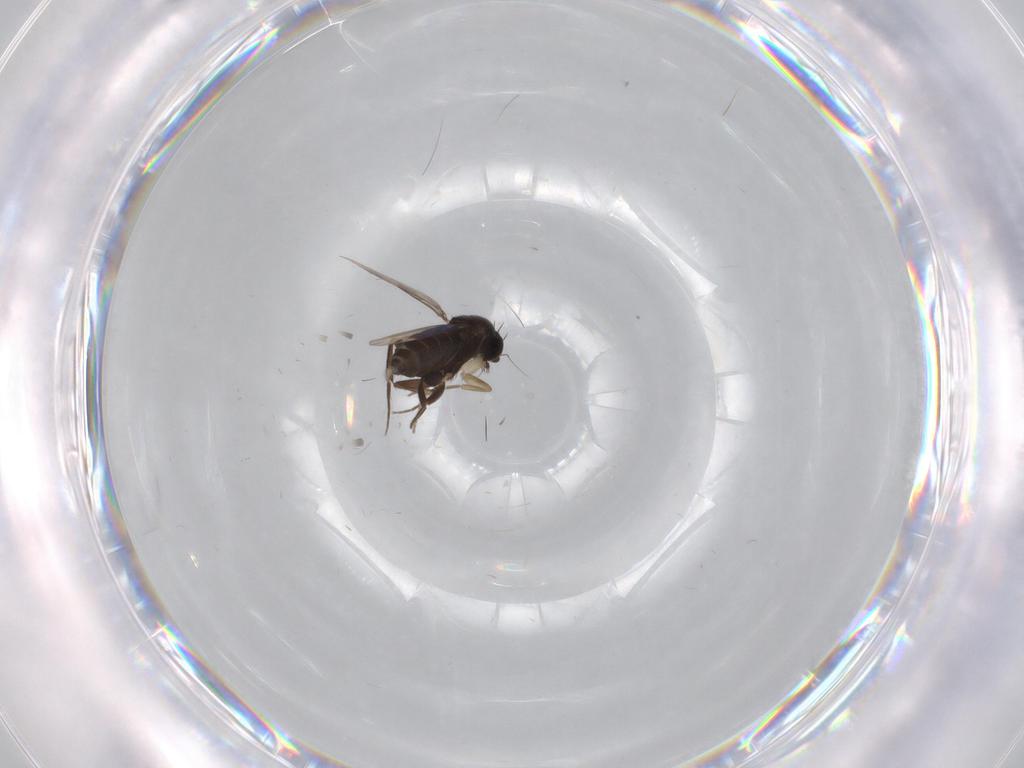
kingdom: Animalia
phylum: Arthropoda
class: Insecta
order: Diptera
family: Phoridae
